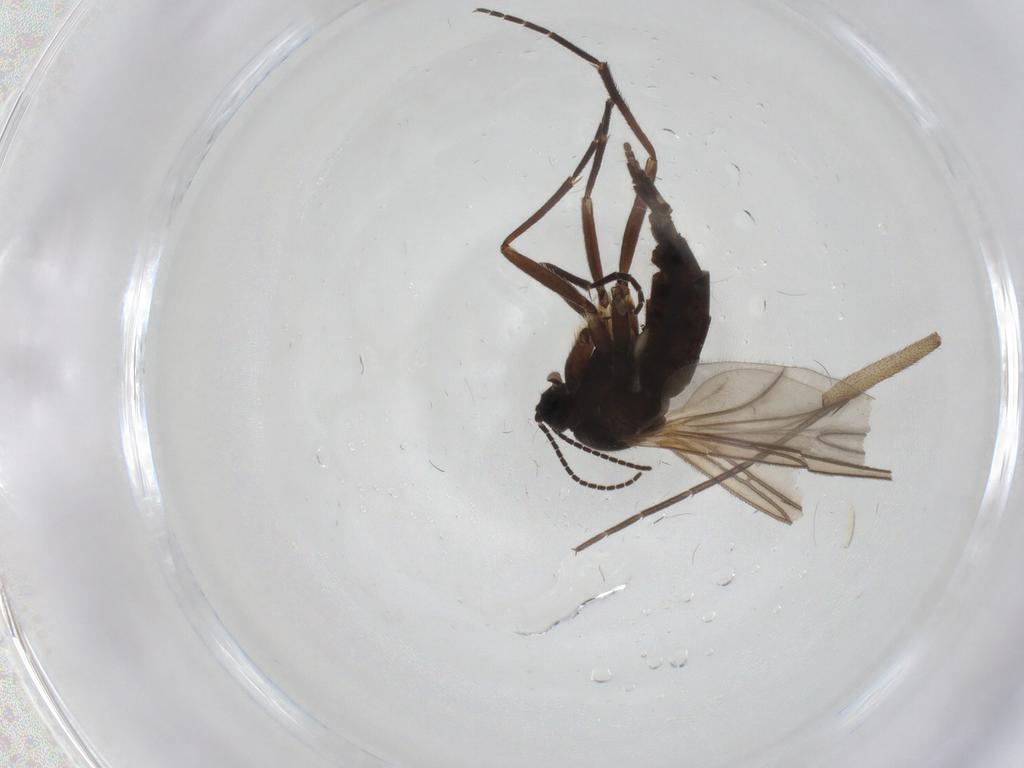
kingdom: Animalia
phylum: Arthropoda
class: Insecta
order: Diptera
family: Sciaridae
